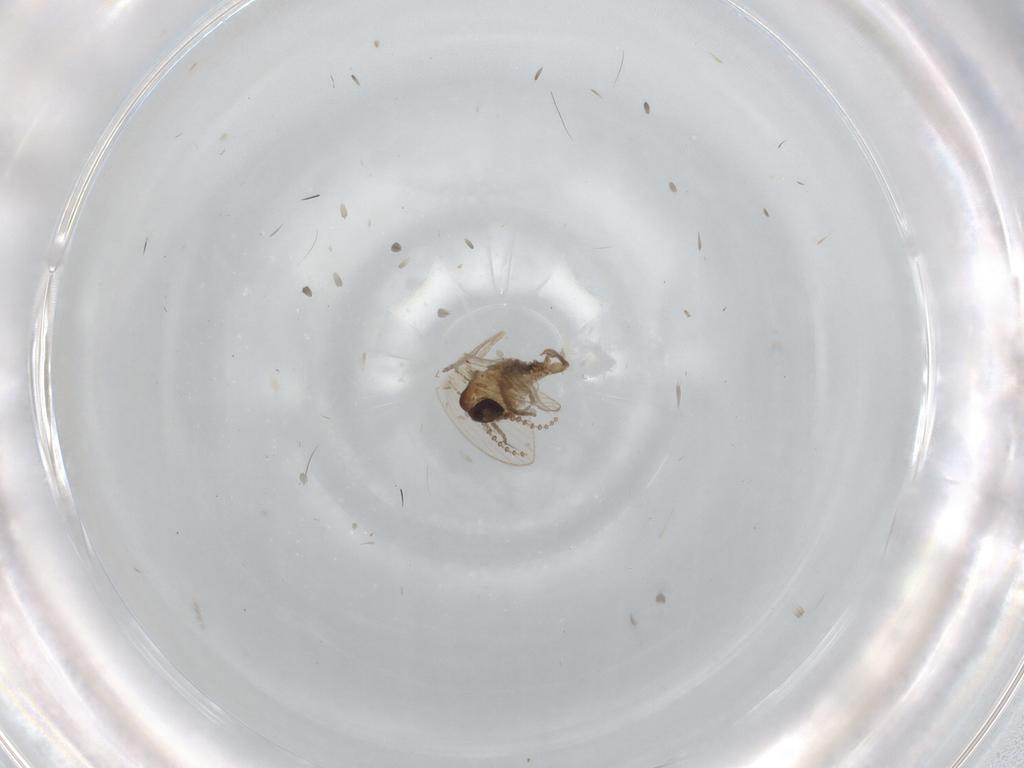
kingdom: Animalia
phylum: Arthropoda
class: Insecta
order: Diptera
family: Psychodidae
